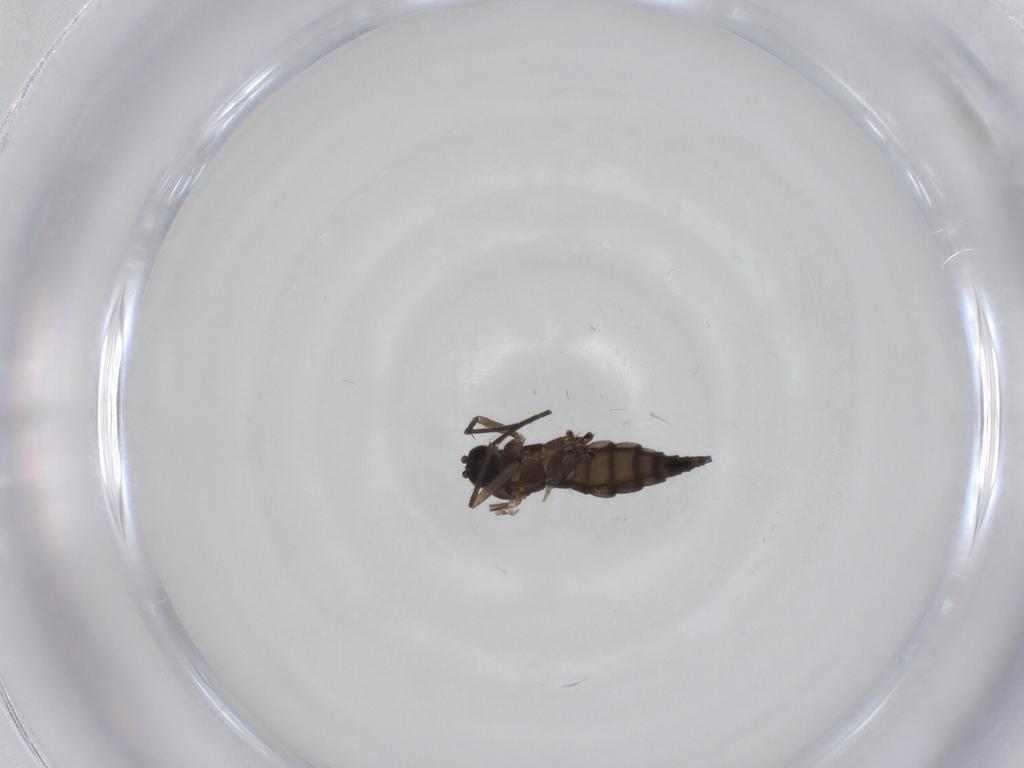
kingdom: Animalia
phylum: Arthropoda
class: Insecta
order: Diptera
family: Sciaridae
